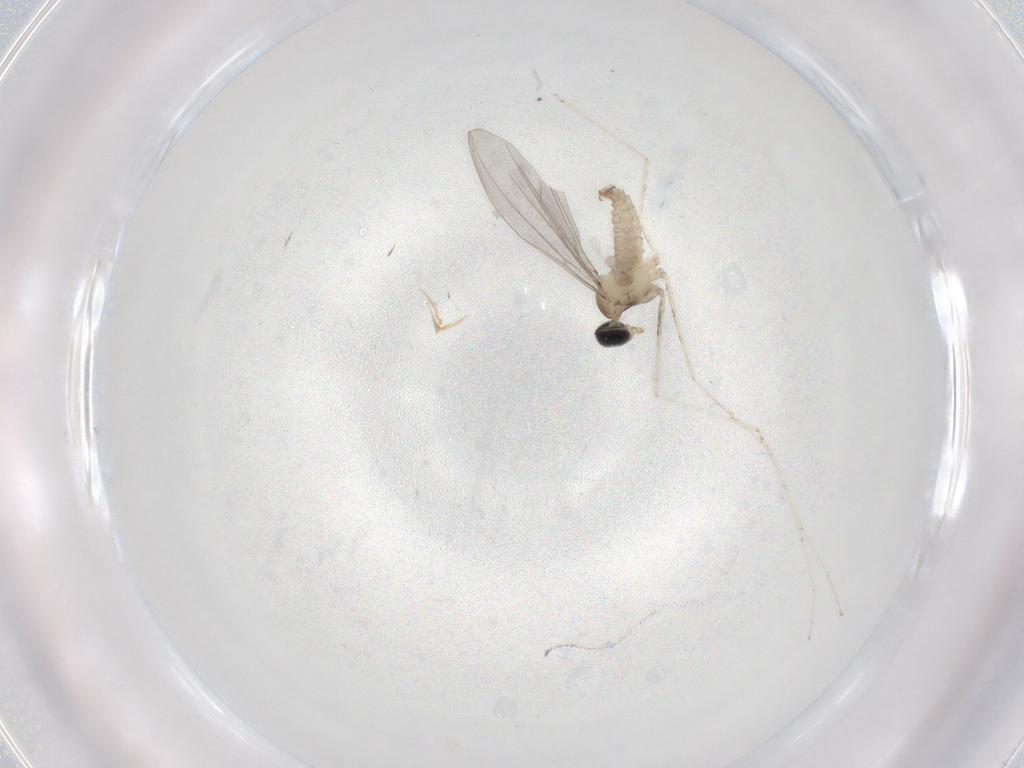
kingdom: Animalia
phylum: Arthropoda
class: Insecta
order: Diptera
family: Cecidomyiidae
